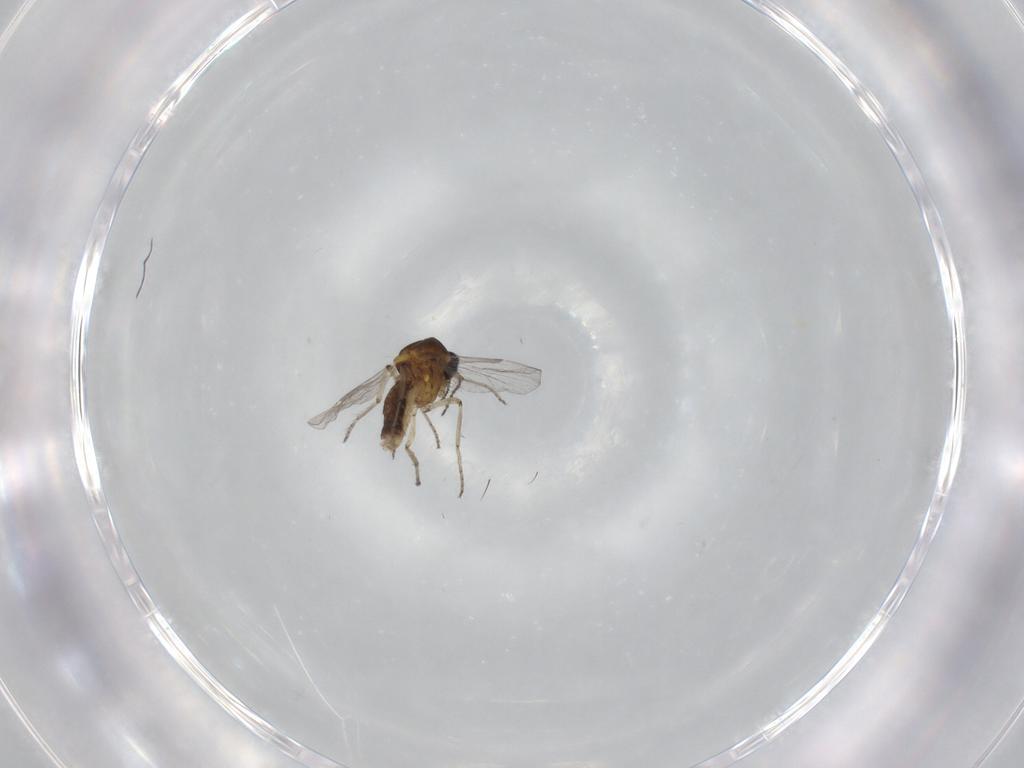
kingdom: Animalia
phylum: Arthropoda
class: Insecta
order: Diptera
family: Ceratopogonidae
